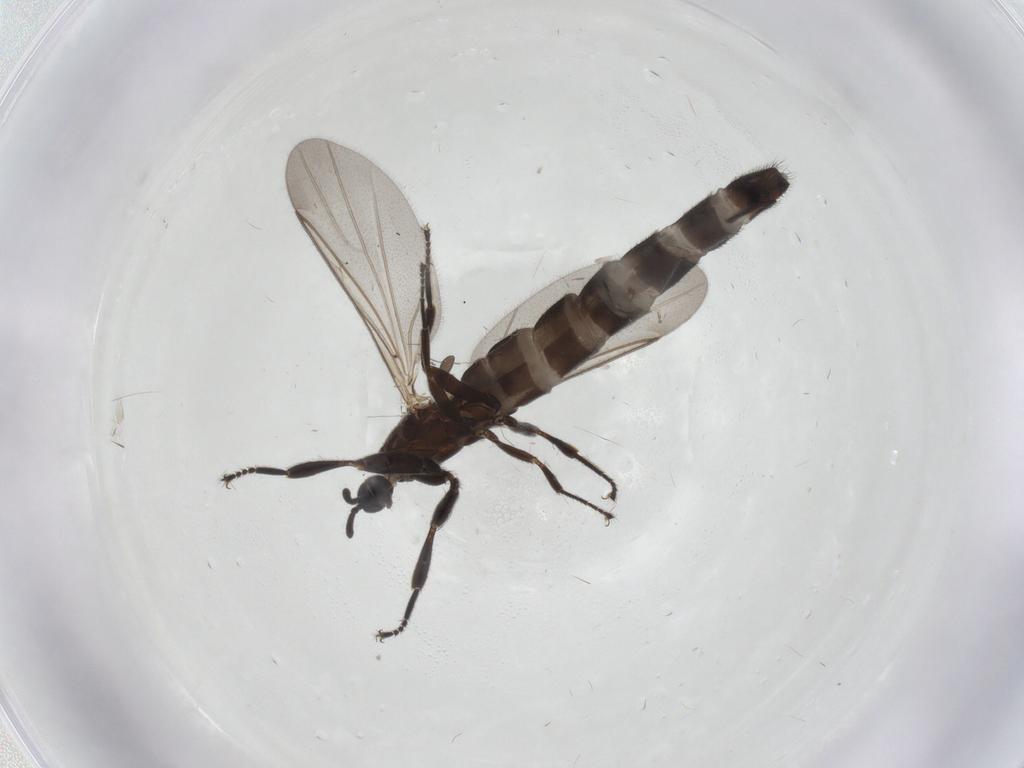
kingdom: Animalia
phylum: Arthropoda
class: Insecta
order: Diptera
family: Scatopsidae
